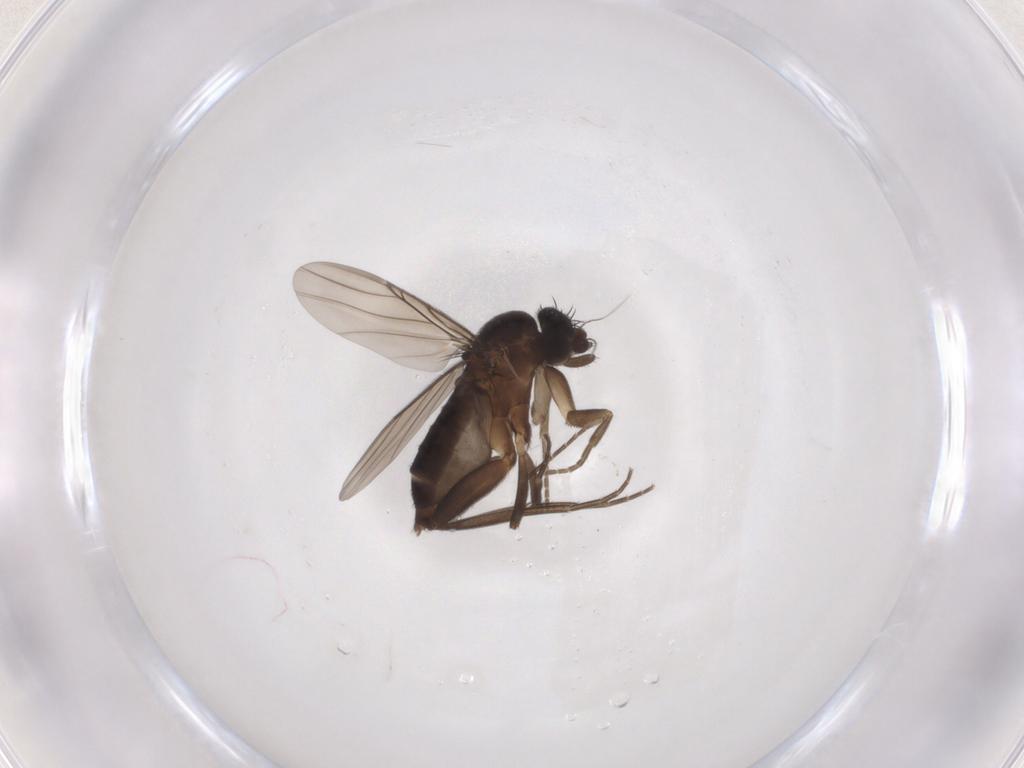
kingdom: Animalia
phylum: Arthropoda
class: Insecta
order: Diptera
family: Phoridae
